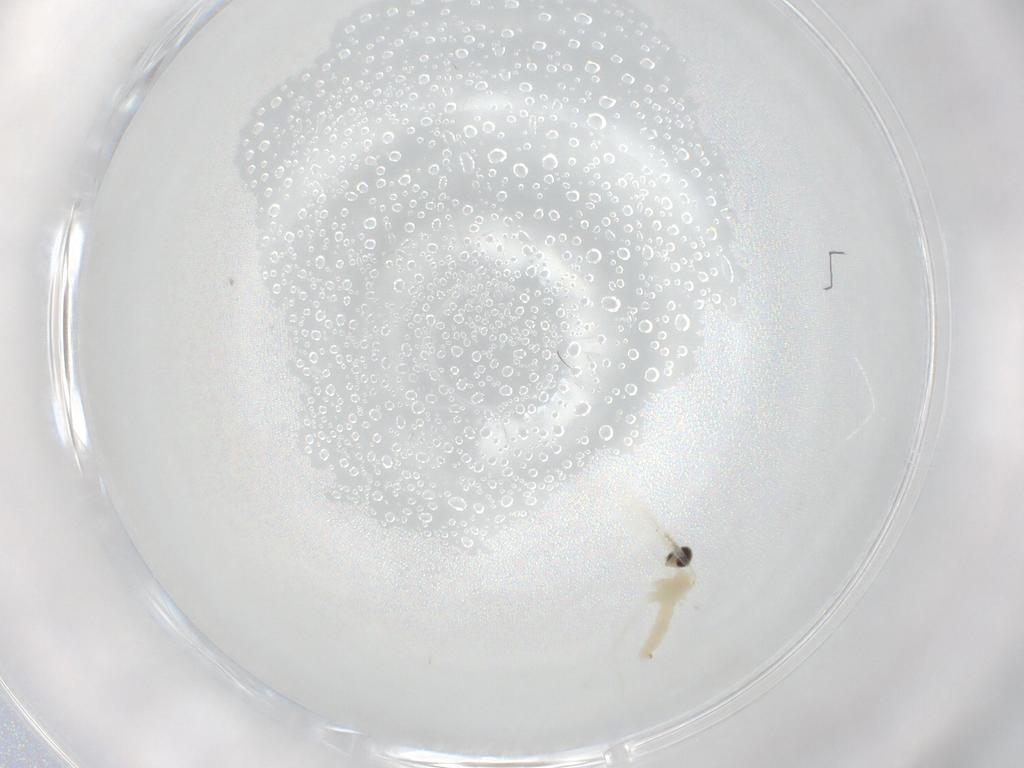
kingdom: Animalia
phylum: Arthropoda
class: Insecta
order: Diptera
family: Cecidomyiidae
